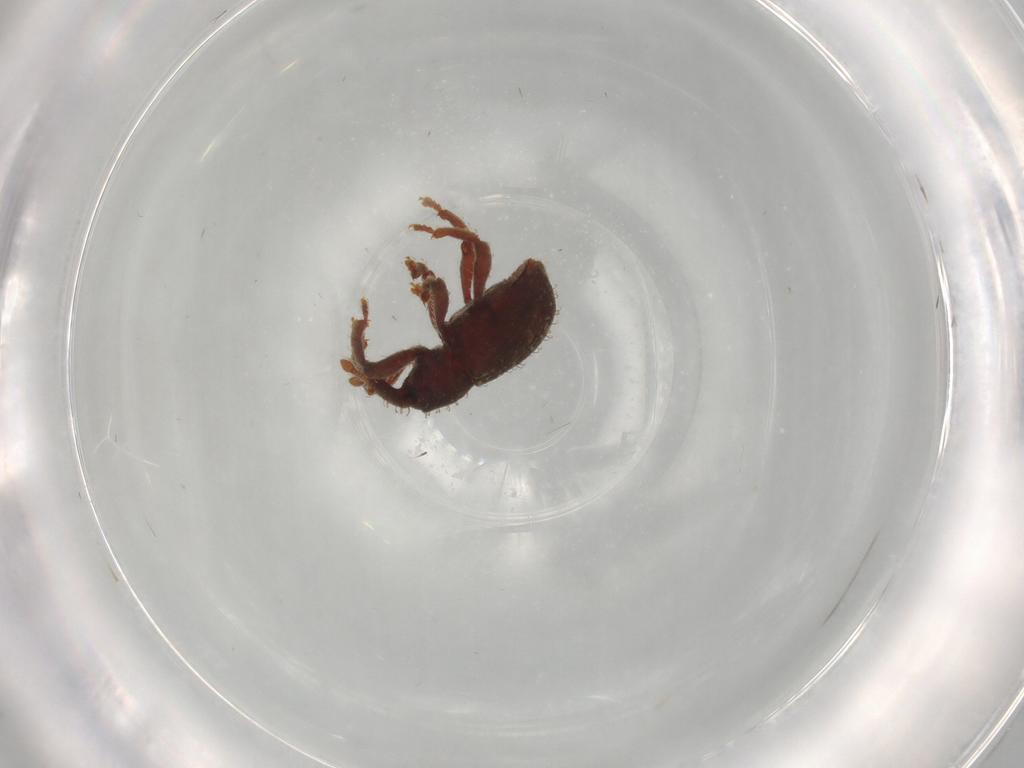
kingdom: Animalia
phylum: Arthropoda
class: Insecta
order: Coleoptera
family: Curculionidae
